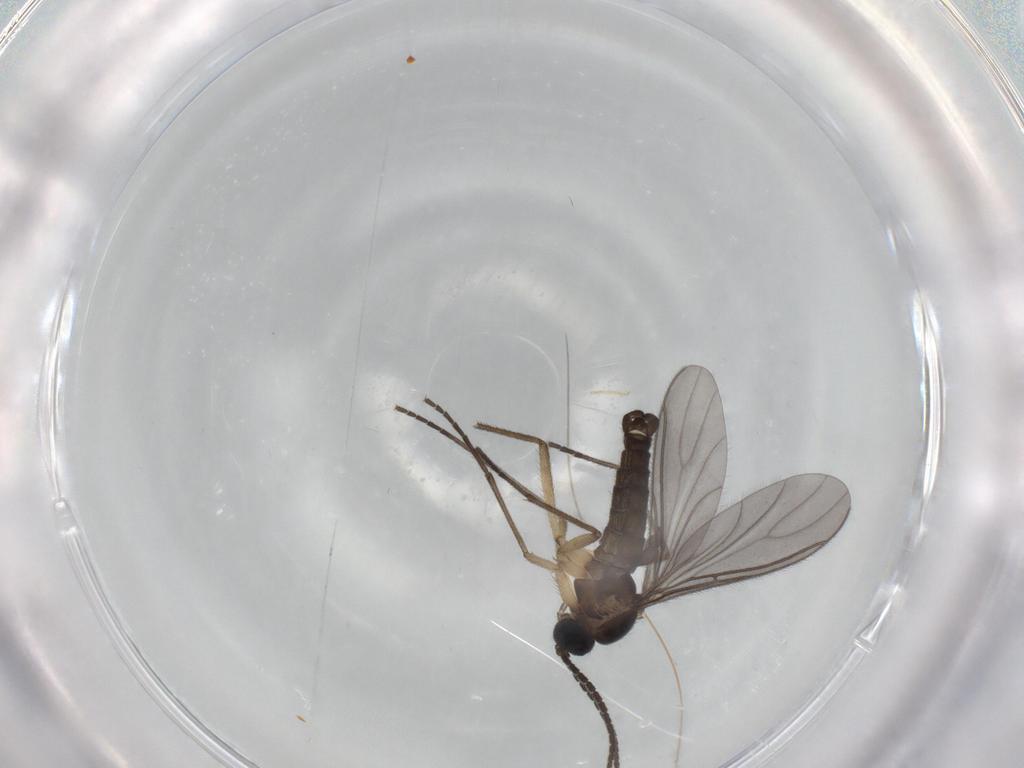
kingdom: Animalia
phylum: Arthropoda
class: Insecta
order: Diptera
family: Sciaridae
